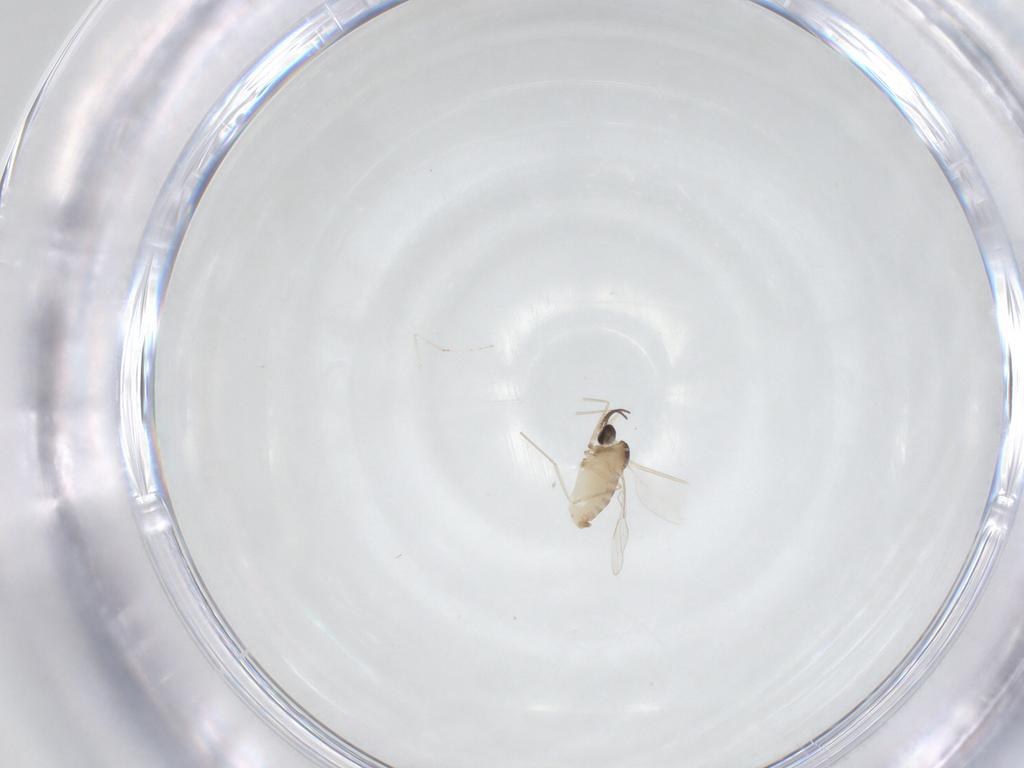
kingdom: Animalia
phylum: Arthropoda
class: Insecta
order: Diptera
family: Cecidomyiidae
